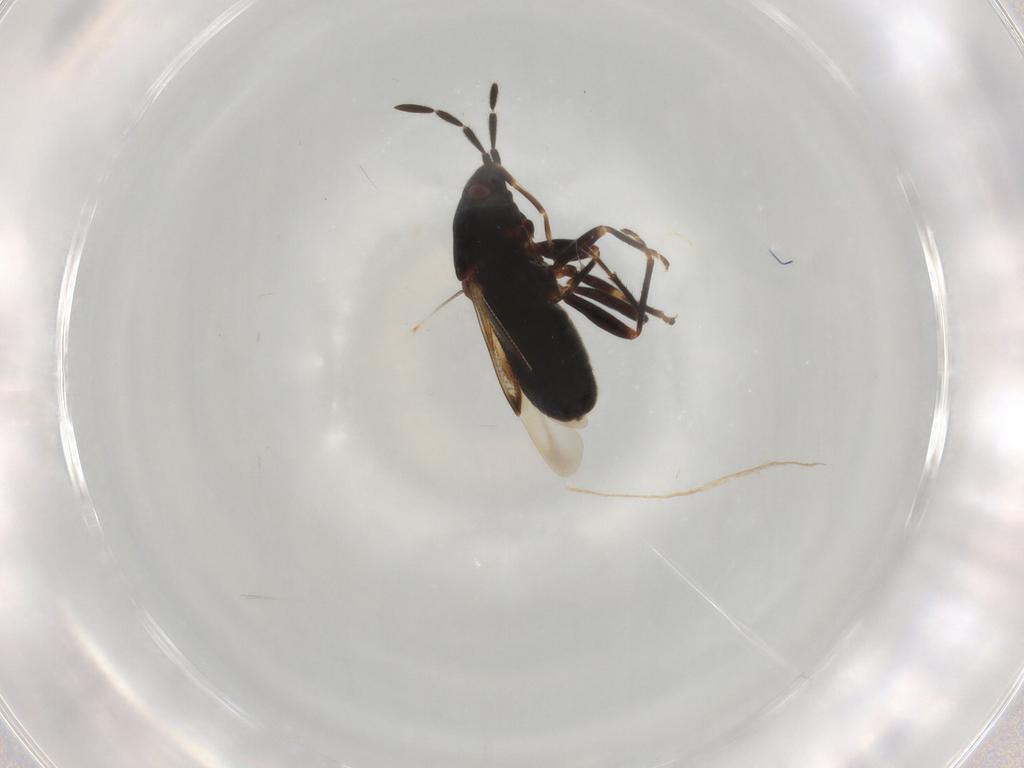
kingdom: Animalia
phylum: Arthropoda
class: Insecta
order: Hemiptera
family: Rhyparochromidae
